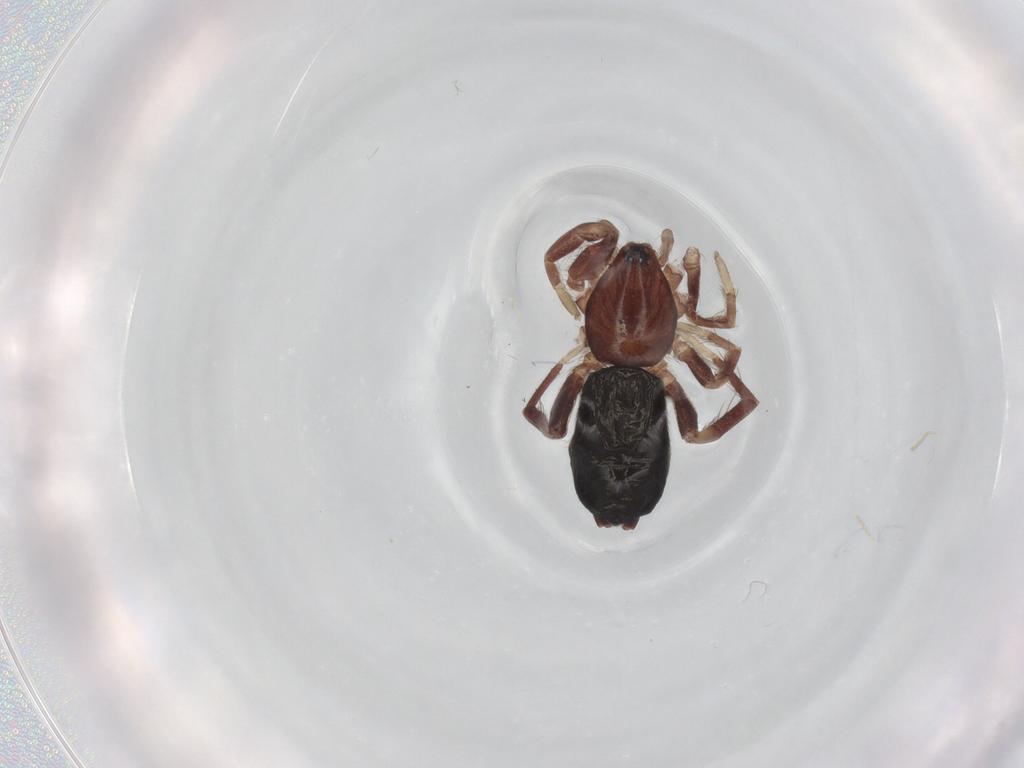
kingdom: Animalia
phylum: Arthropoda
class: Arachnida
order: Araneae
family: Gnaphosidae
